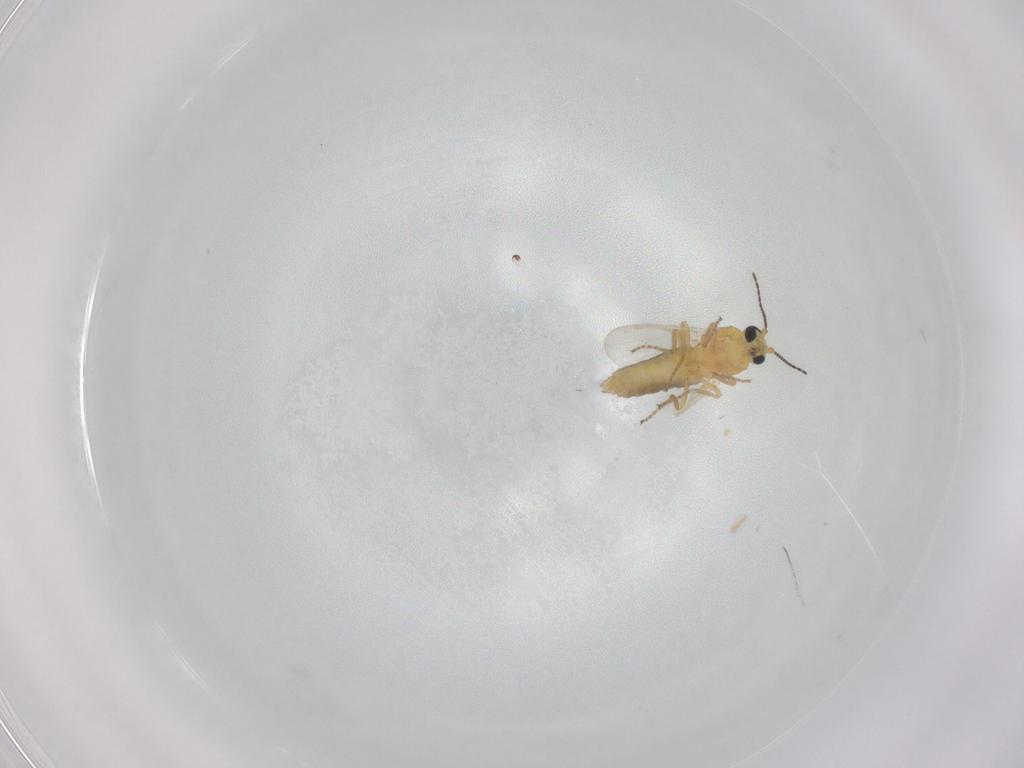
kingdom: Animalia
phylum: Arthropoda
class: Insecta
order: Diptera
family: Ceratopogonidae
